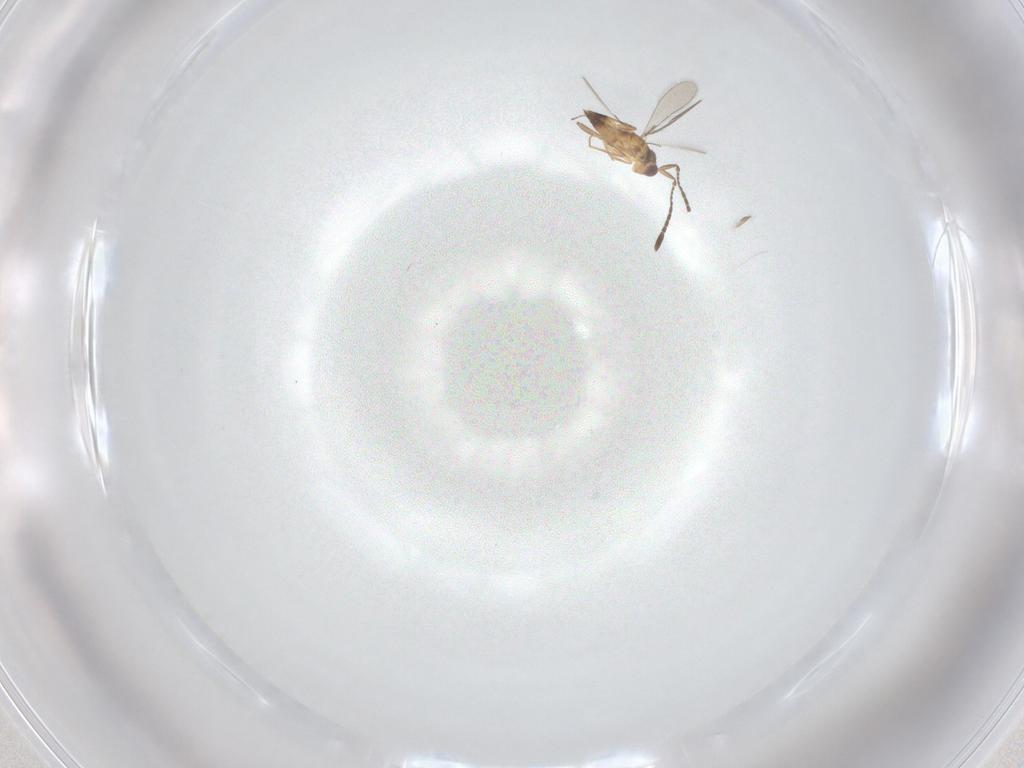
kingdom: Animalia
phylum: Arthropoda
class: Insecta
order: Hymenoptera
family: Mymaridae
